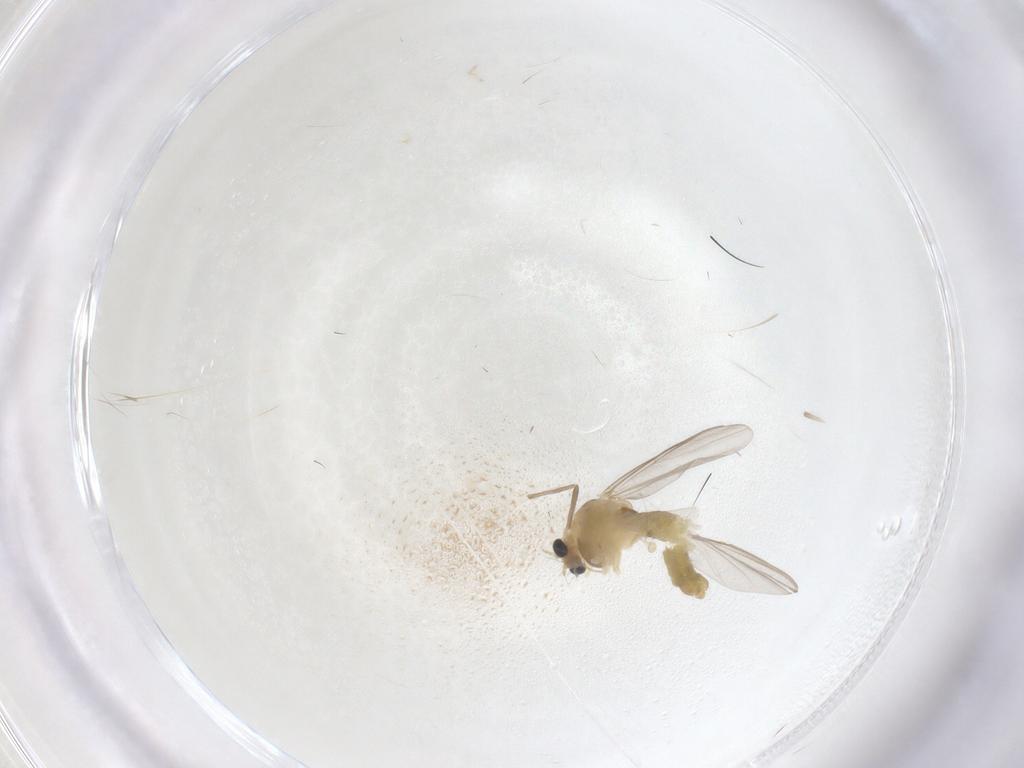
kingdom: Animalia
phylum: Arthropoda
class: Insecta
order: Diptera
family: Chironomidae
